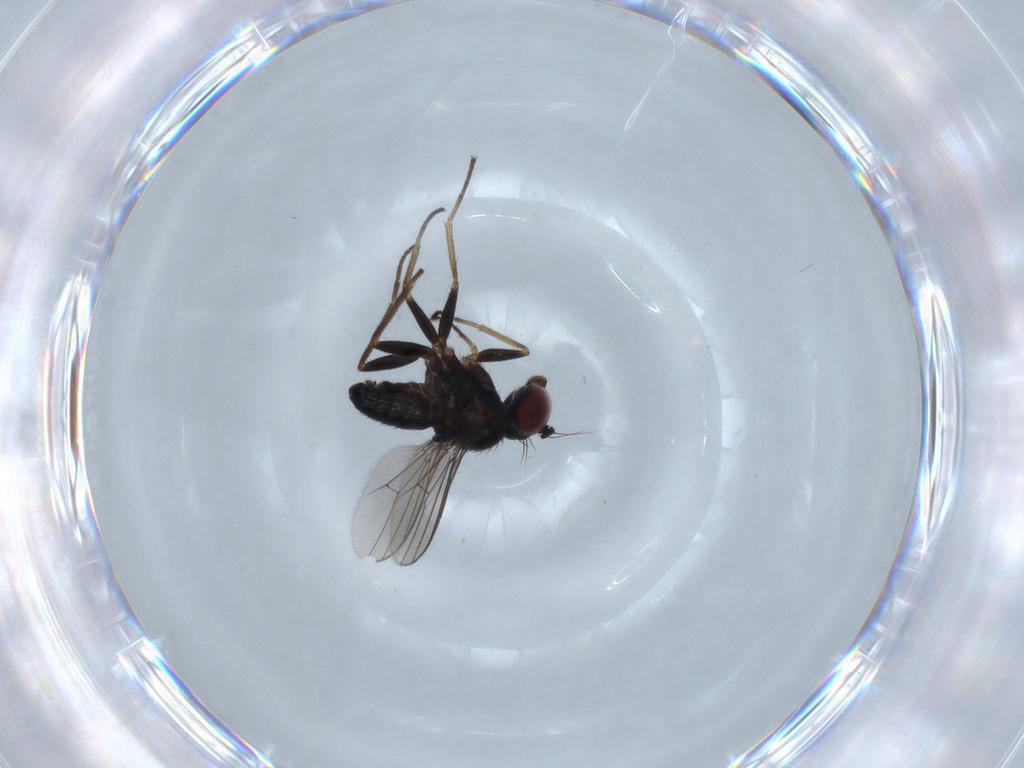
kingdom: Animalia
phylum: Arthropoda
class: Insecta
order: Diptera
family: Dolichopodidae
